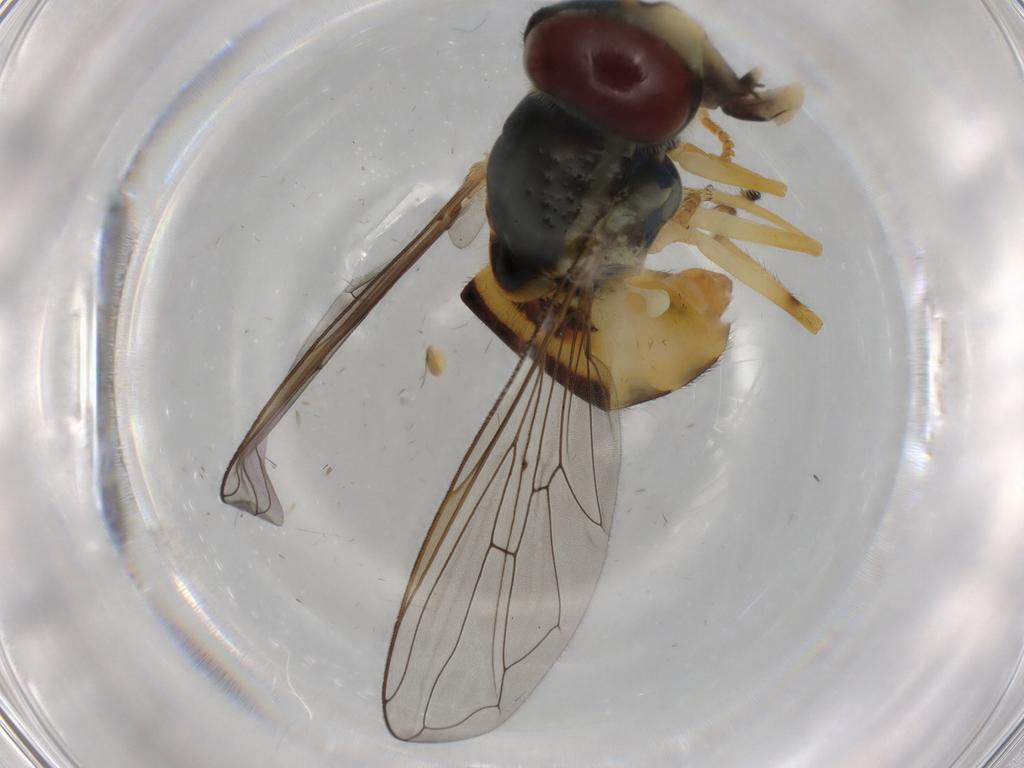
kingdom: Animalia
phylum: Arthropoda
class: Insecta
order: Diptera
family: Syrphidae
